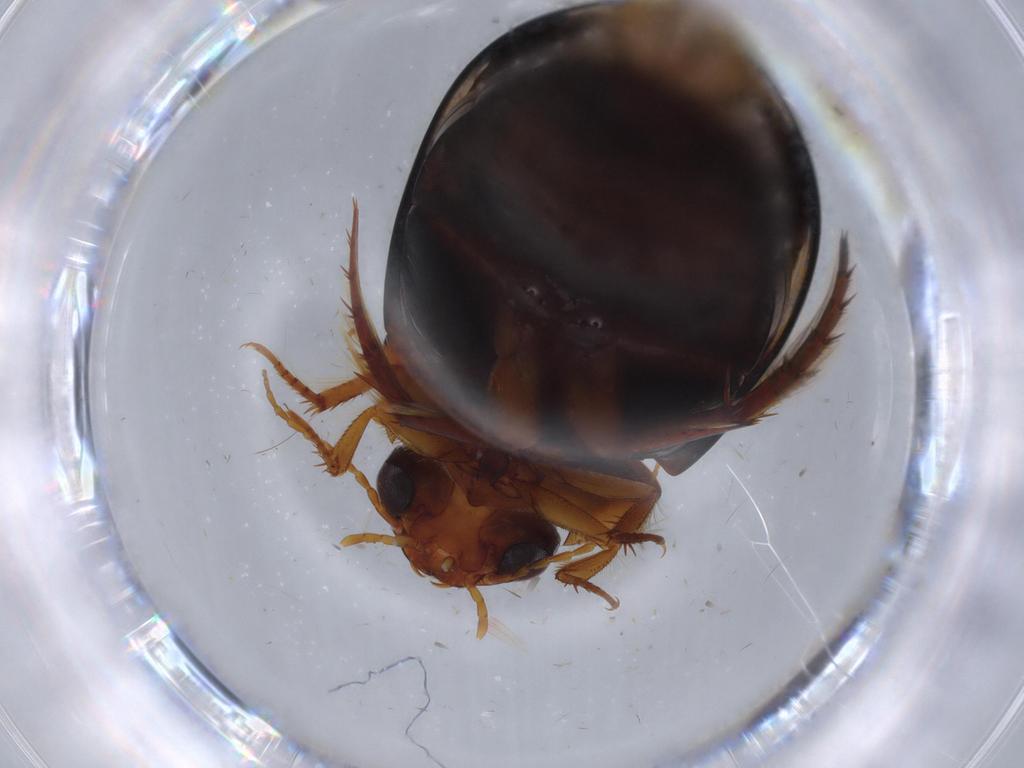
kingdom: Animalia
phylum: Arthropoda
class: Insecta
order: Coleoptera
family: Dytiscidae
